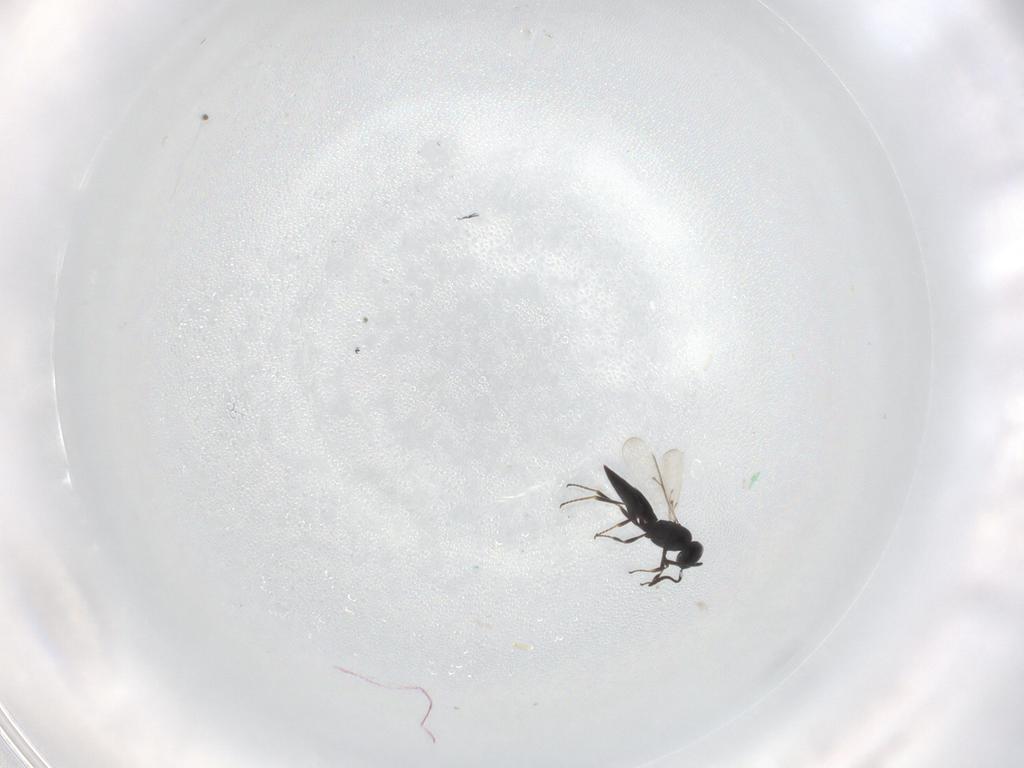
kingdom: Animalia
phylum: Arthropoda
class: Insecta
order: Hymenoptera
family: Scelionidae
